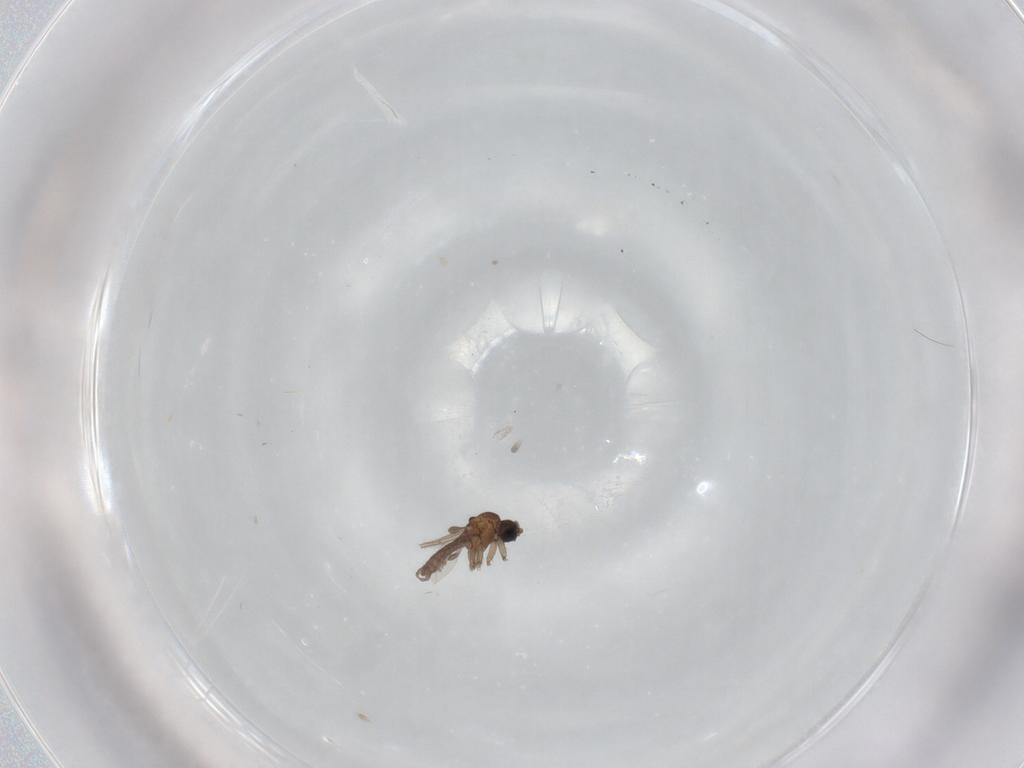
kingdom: Animalia
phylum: Arthropoda
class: Insecta
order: Diptera
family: Sciaridae
